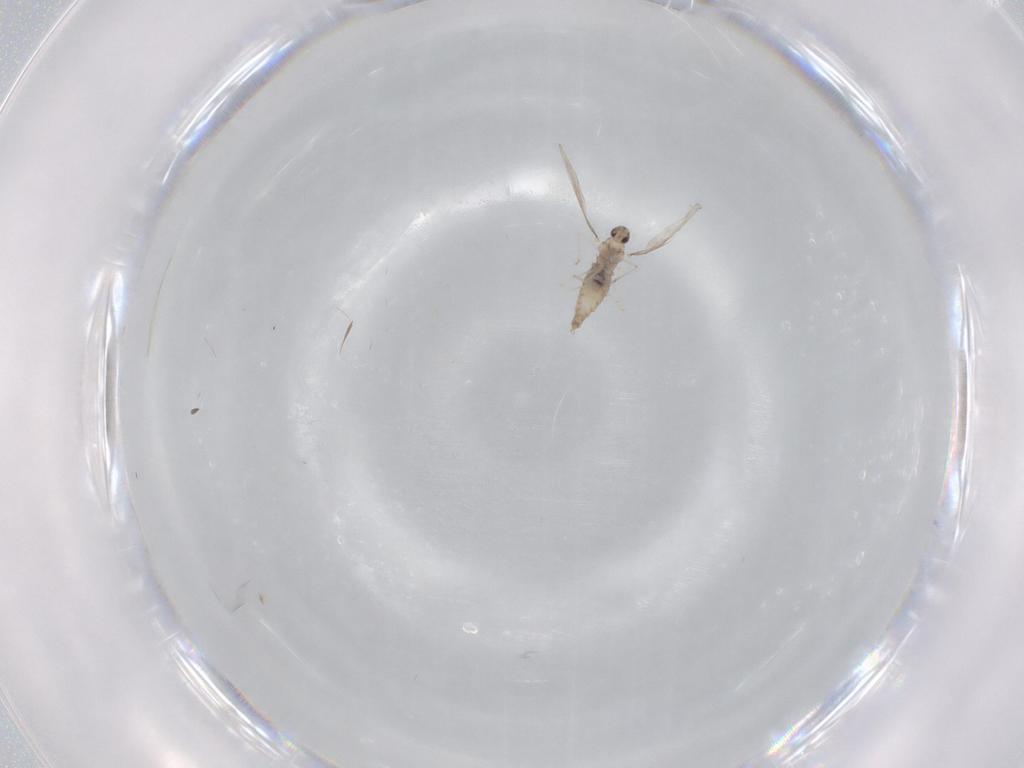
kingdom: Animalia
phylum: Arthropoda
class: Insecta
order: Diptera
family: Cecidomyiidae
